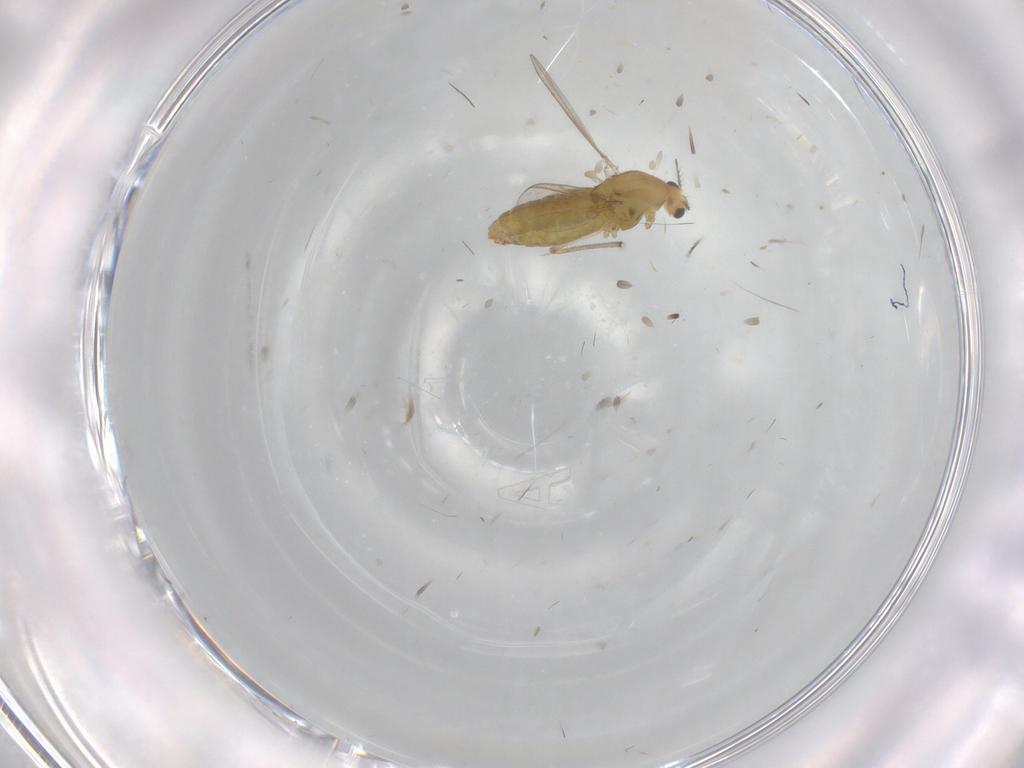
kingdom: Animalia
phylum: Arthropoda
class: Insecta
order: Diptera
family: Chironomidae
